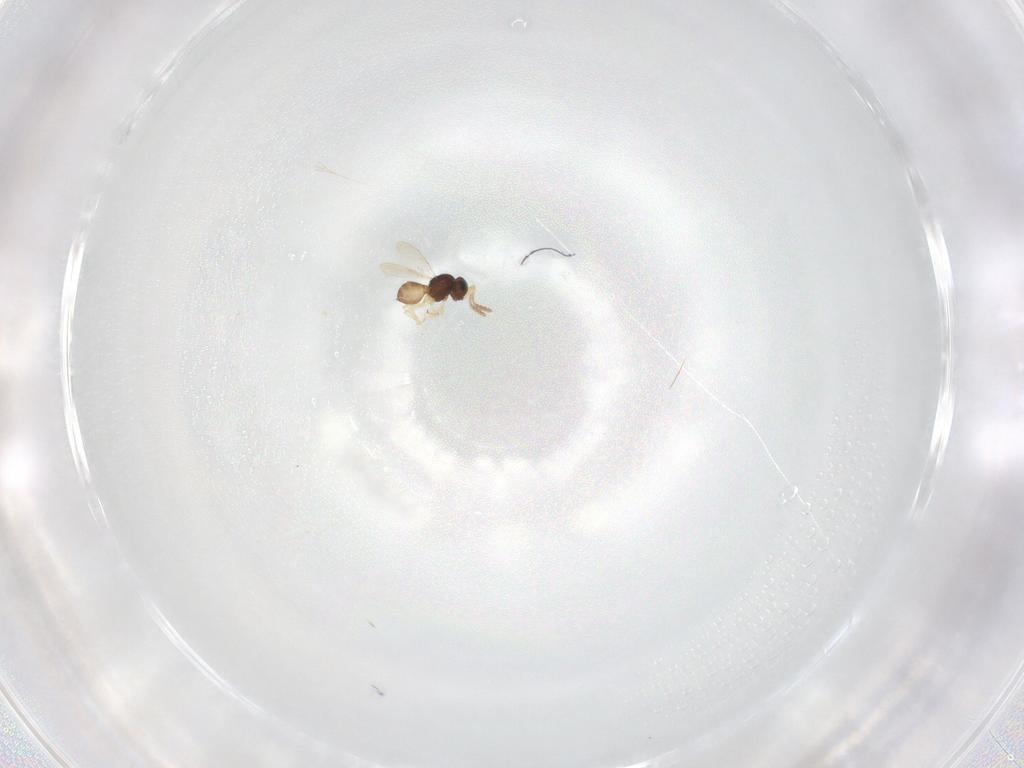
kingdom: Animalia
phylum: Arthropoda
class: Insecta
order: Hymenoptera
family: Scelionidae
